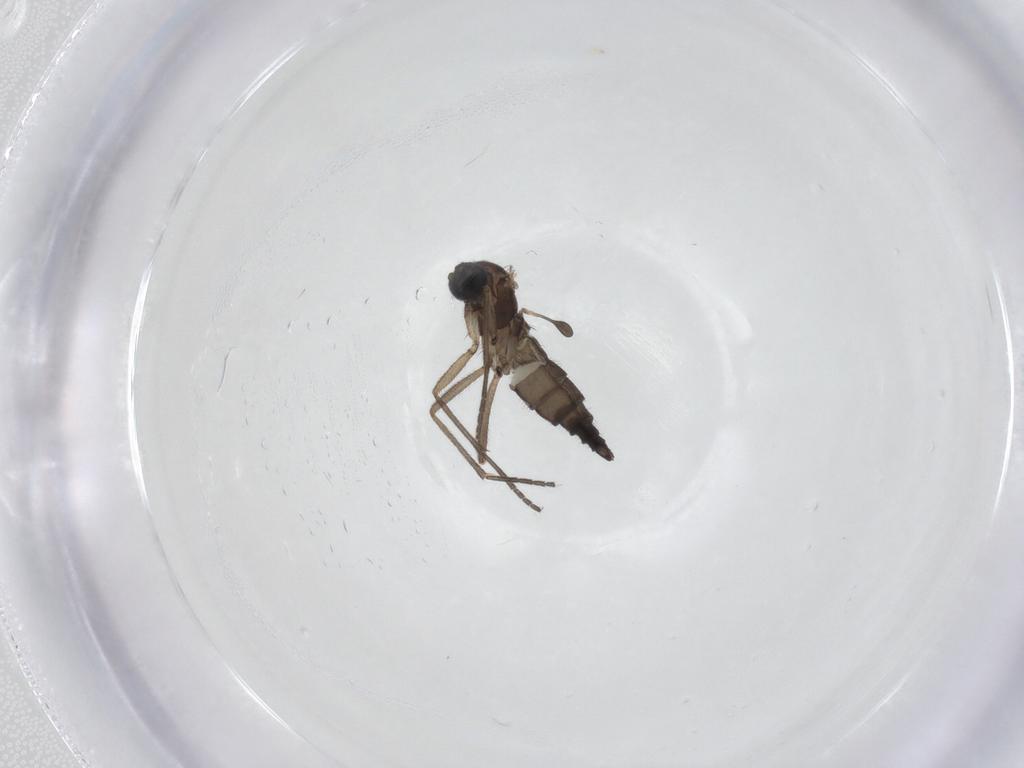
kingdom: Animalia
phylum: Arthropoda
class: Insecta
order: Diptera
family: Sciaridae
